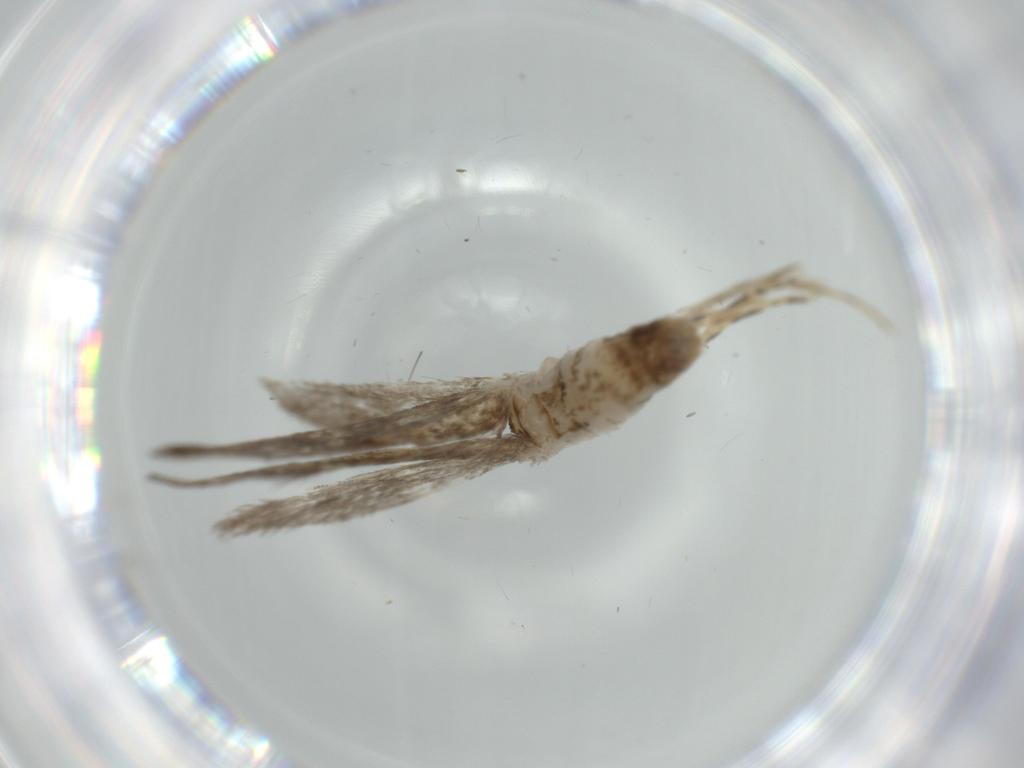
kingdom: Animalia
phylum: Arthropoda
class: Insecta
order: Lepidoptera
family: Tineidae
